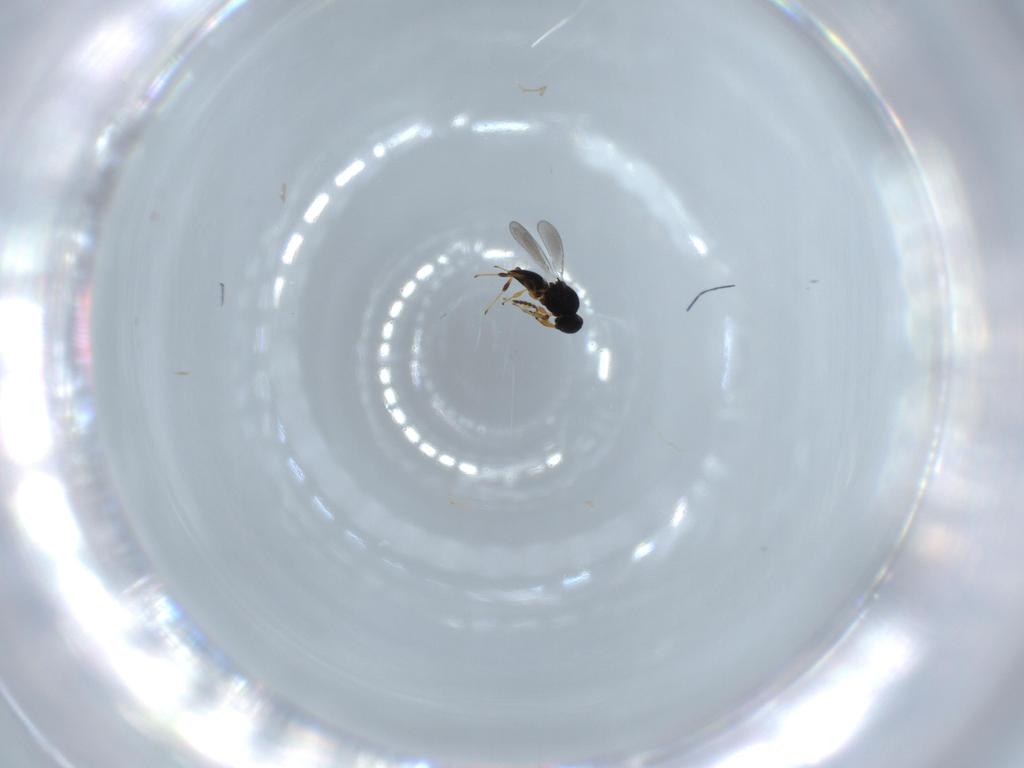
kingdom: Animalia
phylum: Arthropoda
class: Insecta
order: Hymenoptera
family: Platygastridae
